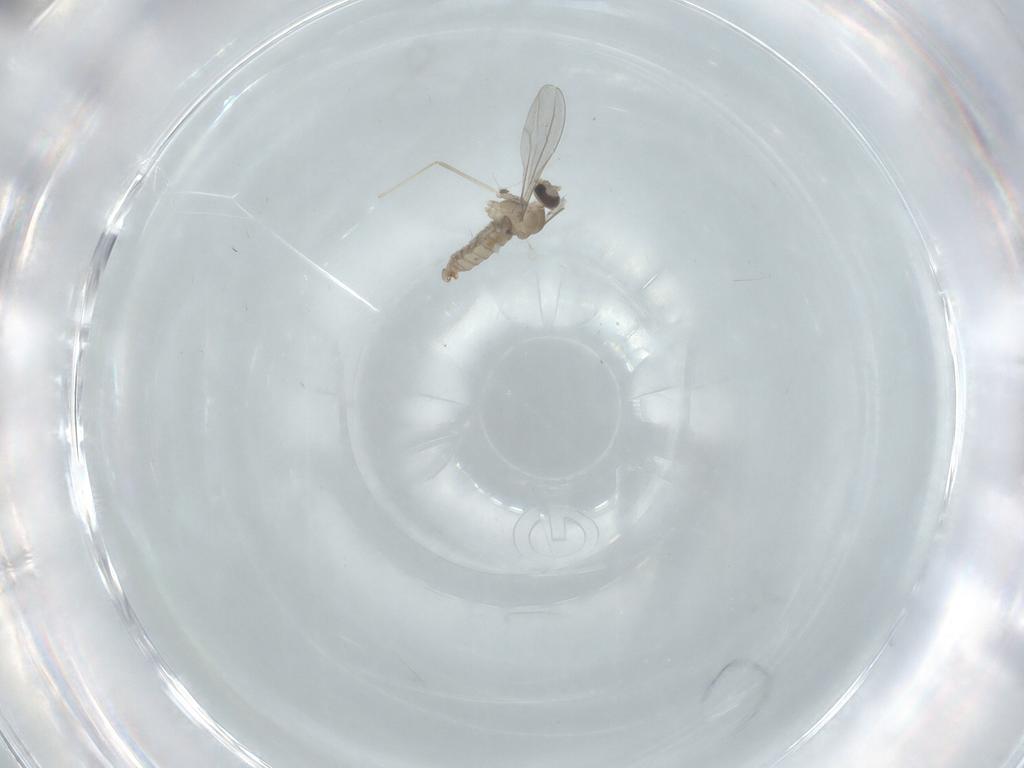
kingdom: Animalia
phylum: Arthropoda
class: Insecta
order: Diptera
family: Cecidomyiidae
